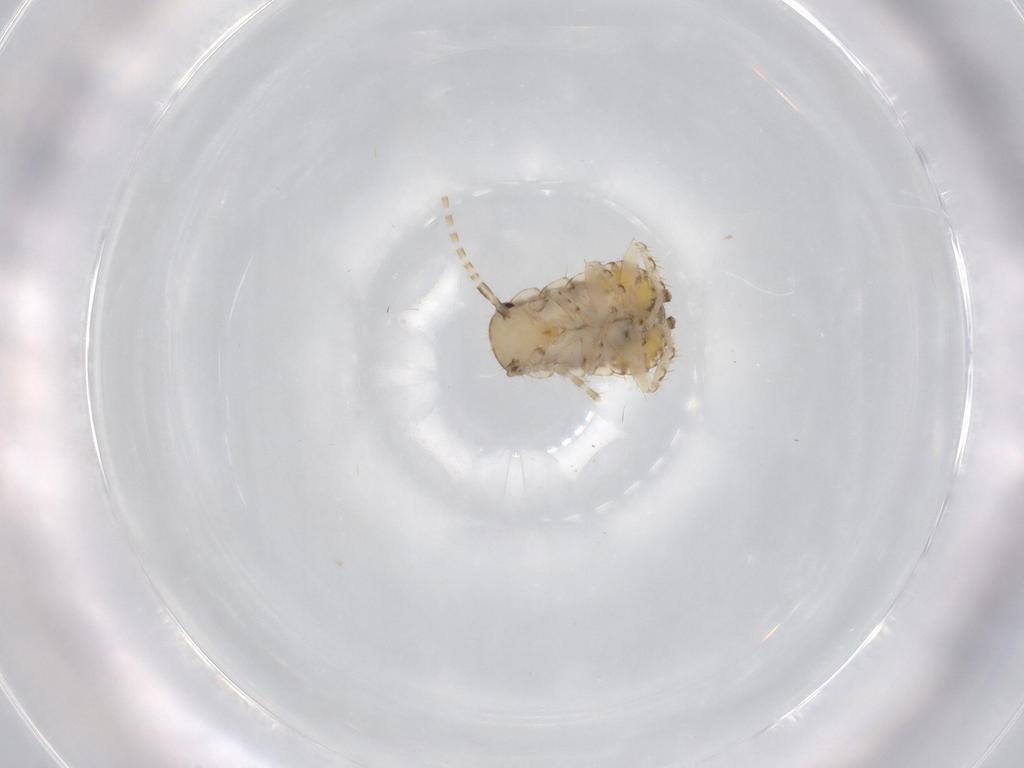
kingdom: Animalia
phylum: Arthropoda
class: Insecta
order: Blattodea
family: Ectobiidae
